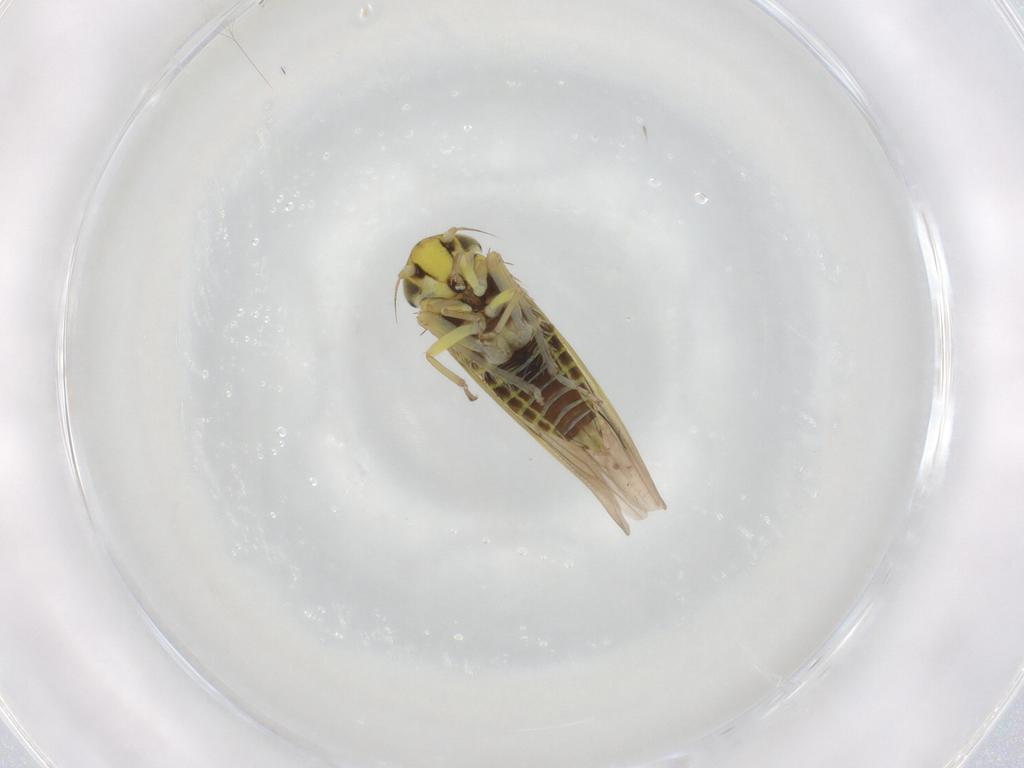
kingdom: Animalia
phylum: Arthropoda
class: Insecta
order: Hemiptera
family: Cicadellidae
